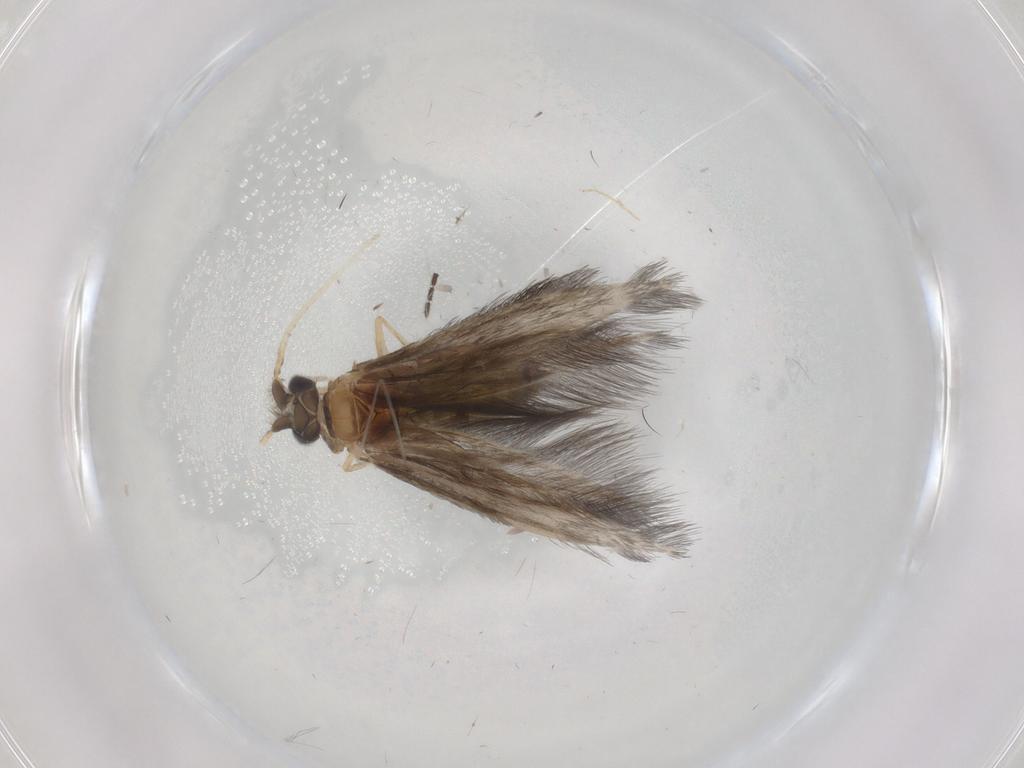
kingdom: Animalia
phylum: Arthropoda
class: Insecta
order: Trichoptera
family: Hydroptilidae
